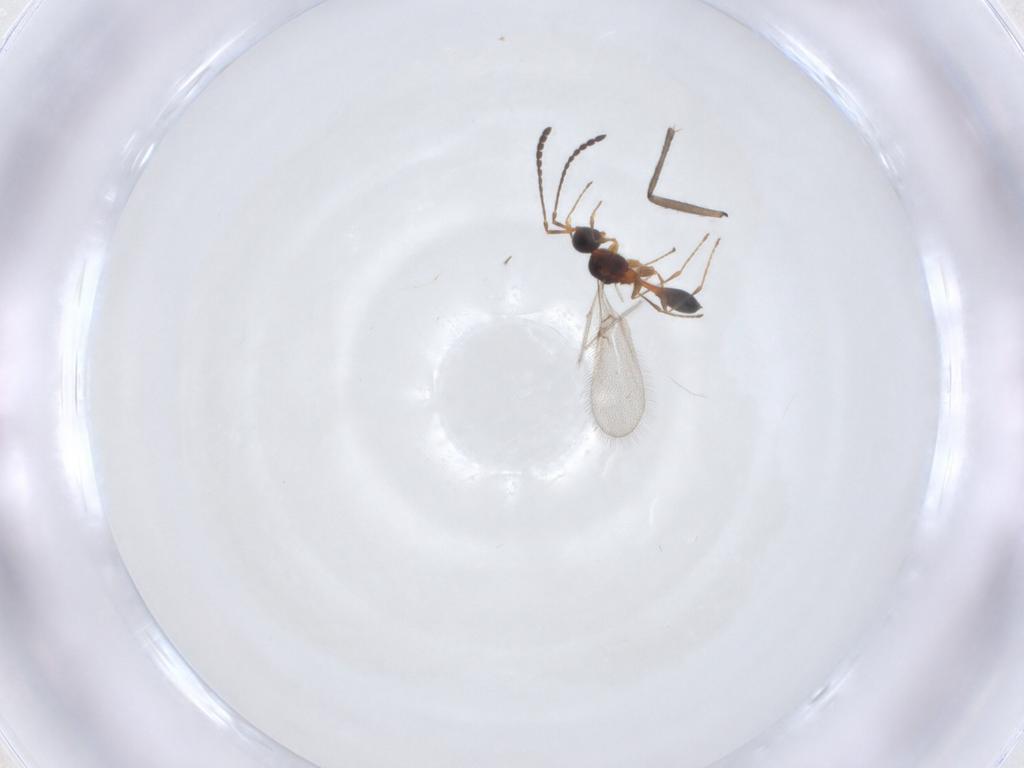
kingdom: Animalia
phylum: Arthropoda
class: Insecta
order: Hymenoptera
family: Diapriidae
